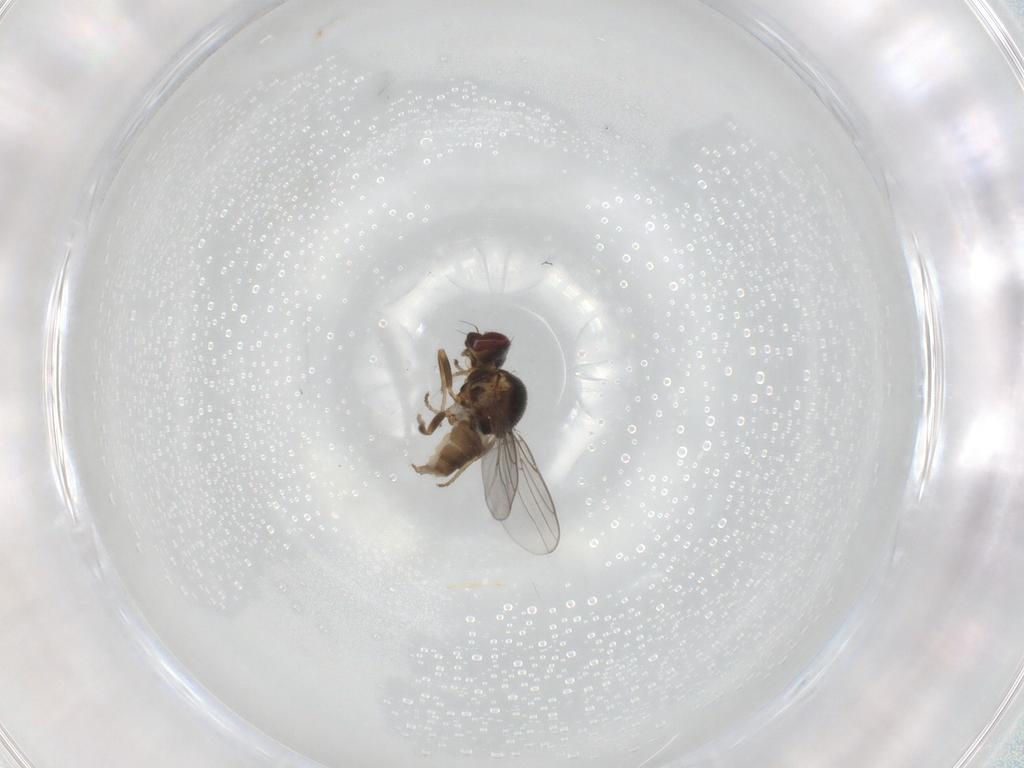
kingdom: Animalia
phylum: Arthropoda
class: Insecta
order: Diptera
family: Chloropidae
